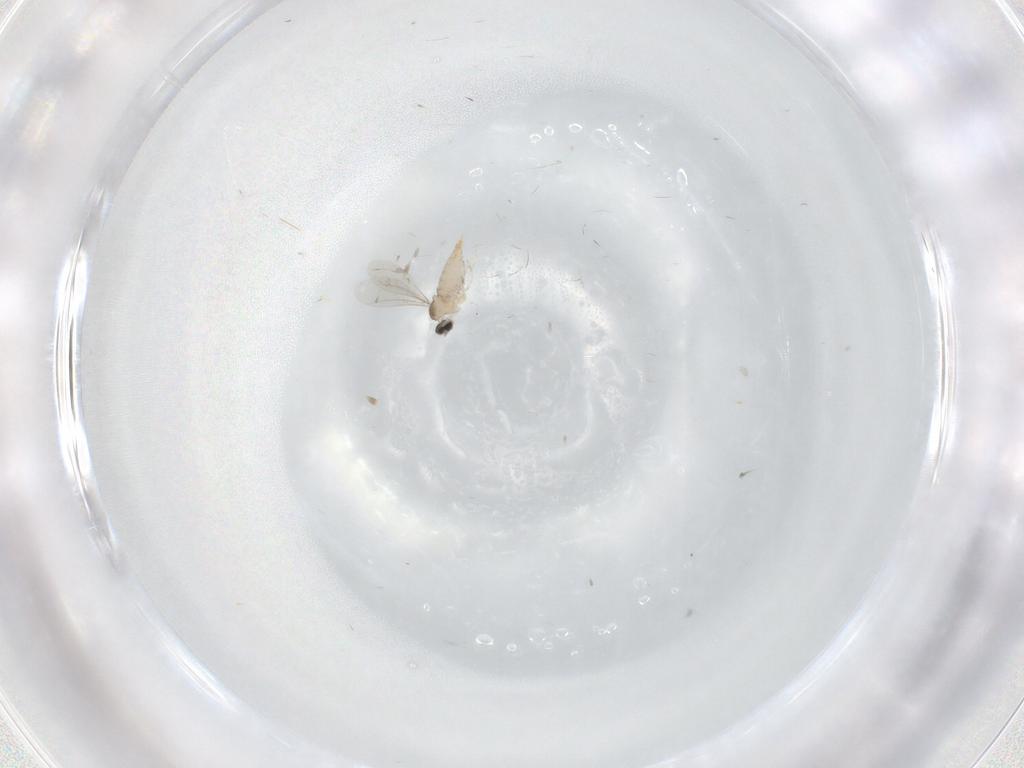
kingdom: Animalia
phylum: Arthropoda
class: Insecta
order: Diptera
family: Cecidomyiidae
